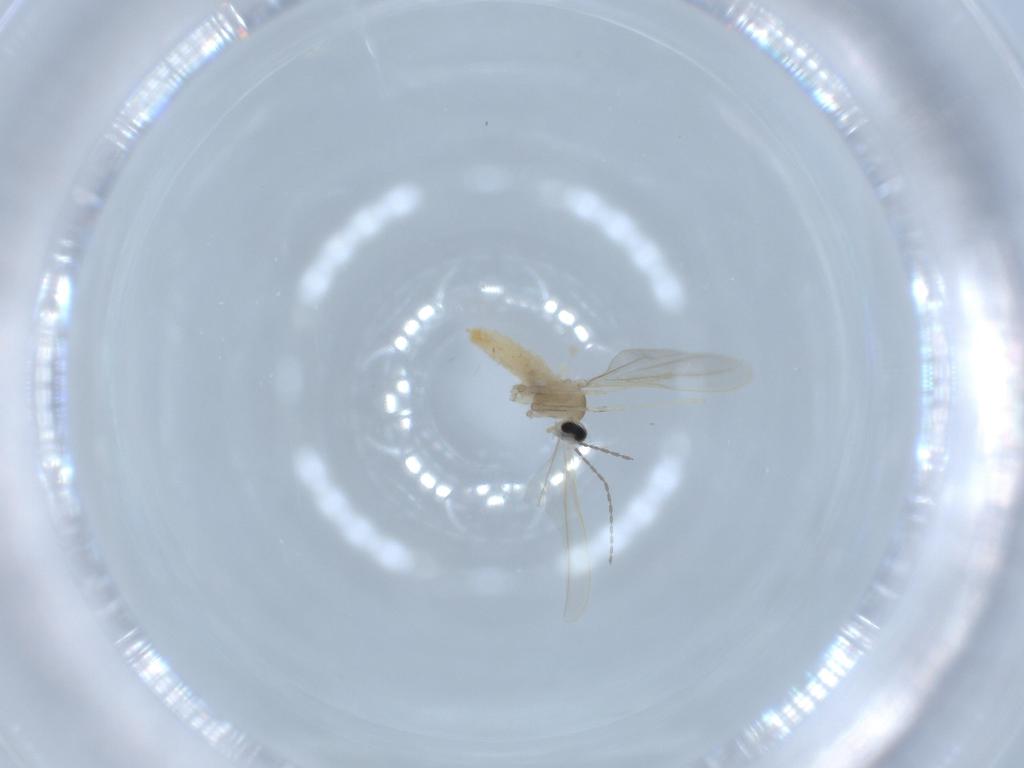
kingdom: Animalia
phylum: Arthropoda
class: Insecta
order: Diptera
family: Cecidomyiidae
